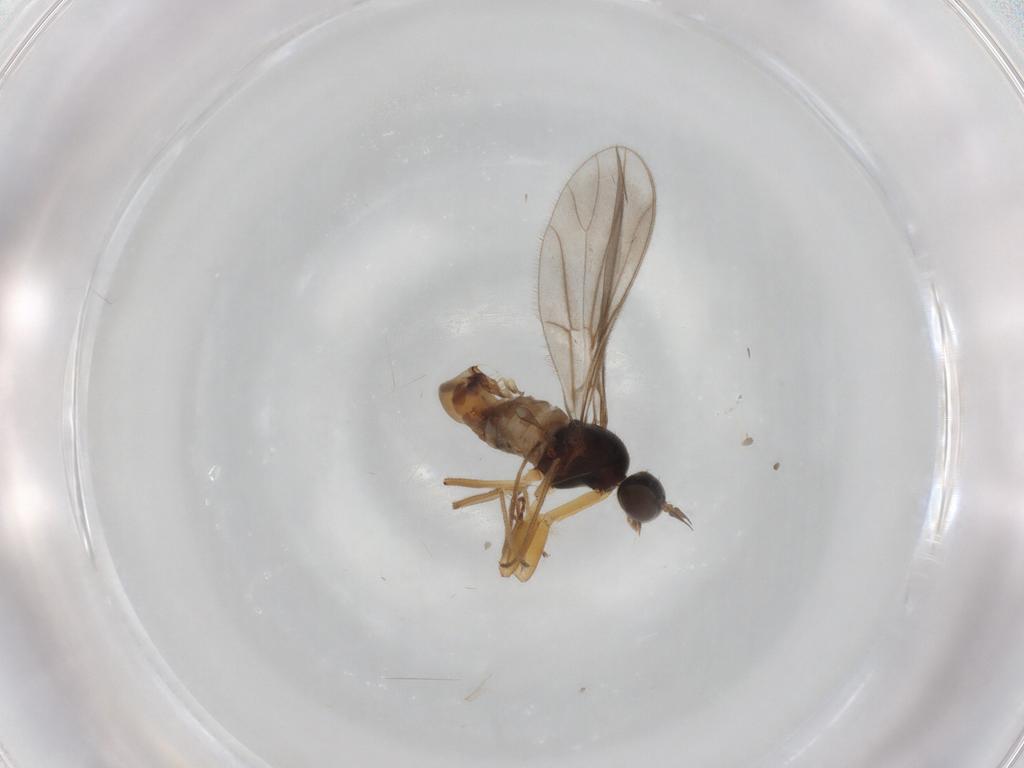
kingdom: Animalia
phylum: Arthropoda
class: Insecta
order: Diptera
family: Empididae
